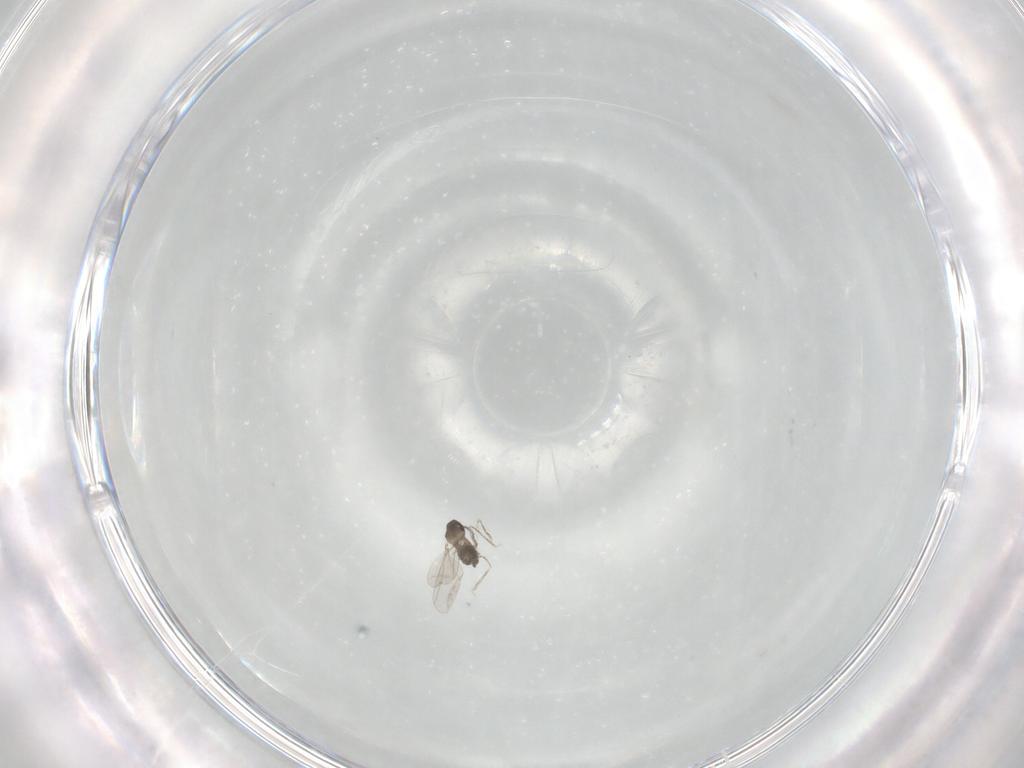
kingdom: Animalia
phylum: Arthropoda
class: Insecta
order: Diptera
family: Cecidomyiidae
